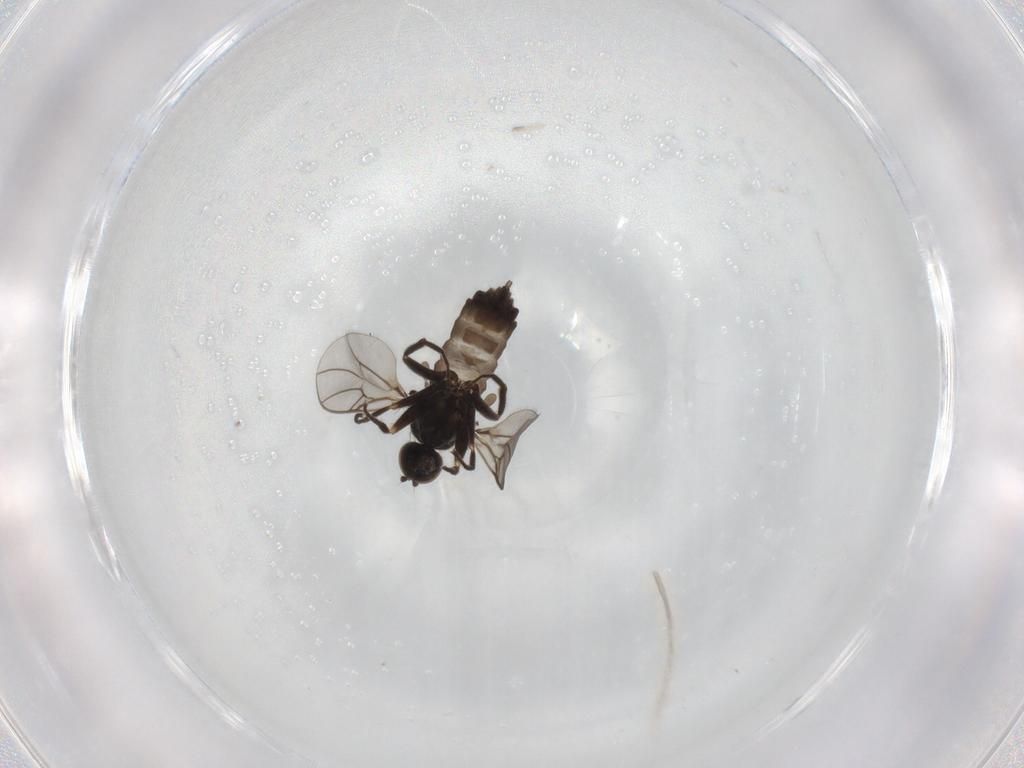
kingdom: Animalia
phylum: Arthropoda
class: Insecta
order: Diptera
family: Hybotidae
